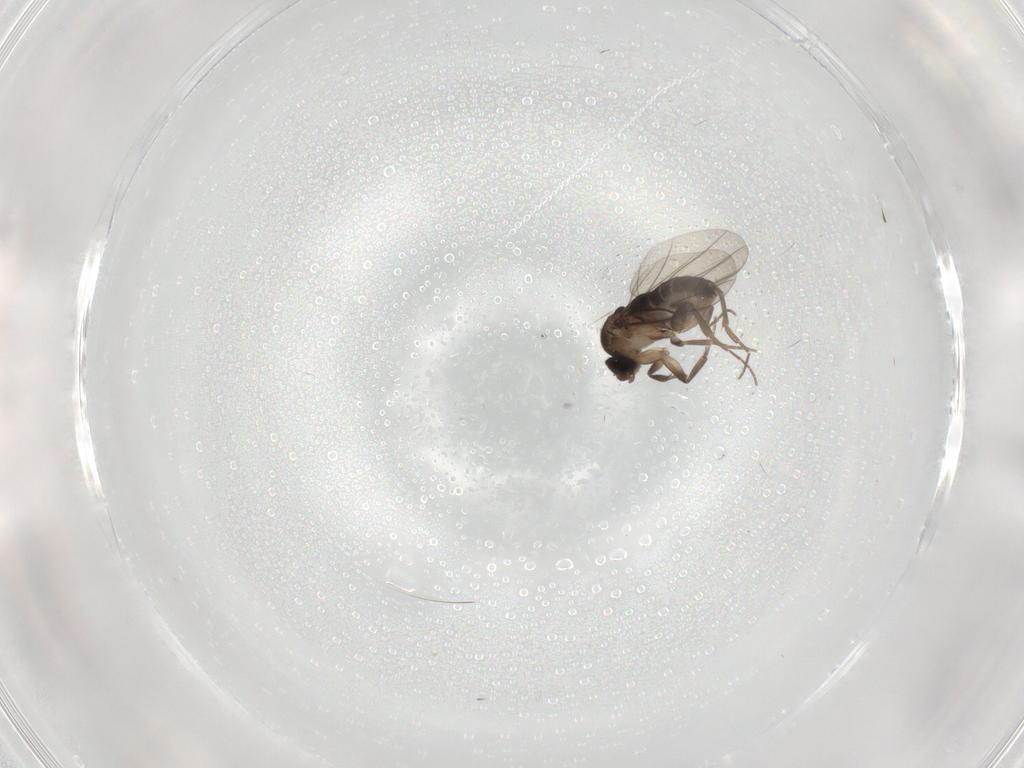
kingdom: Animalia
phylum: Arthropoda
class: Insecta
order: Diptera
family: Phoridae
